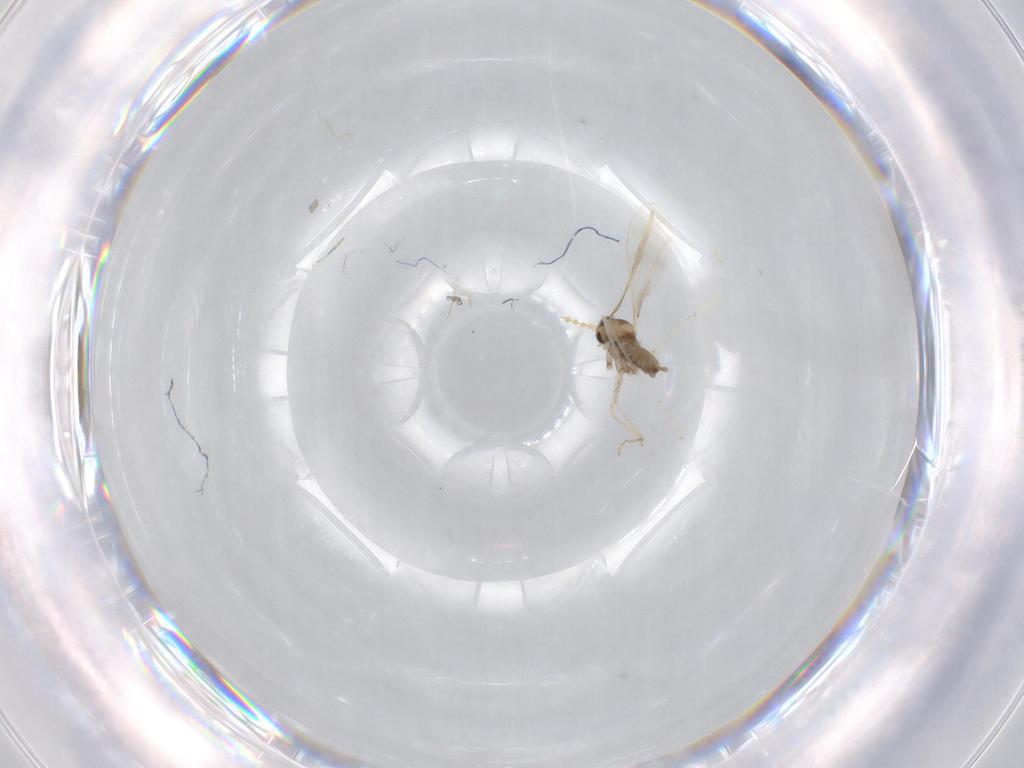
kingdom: Animalia
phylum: Arthropoda
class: Insecta
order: Diptera
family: Cecidomyiidae
